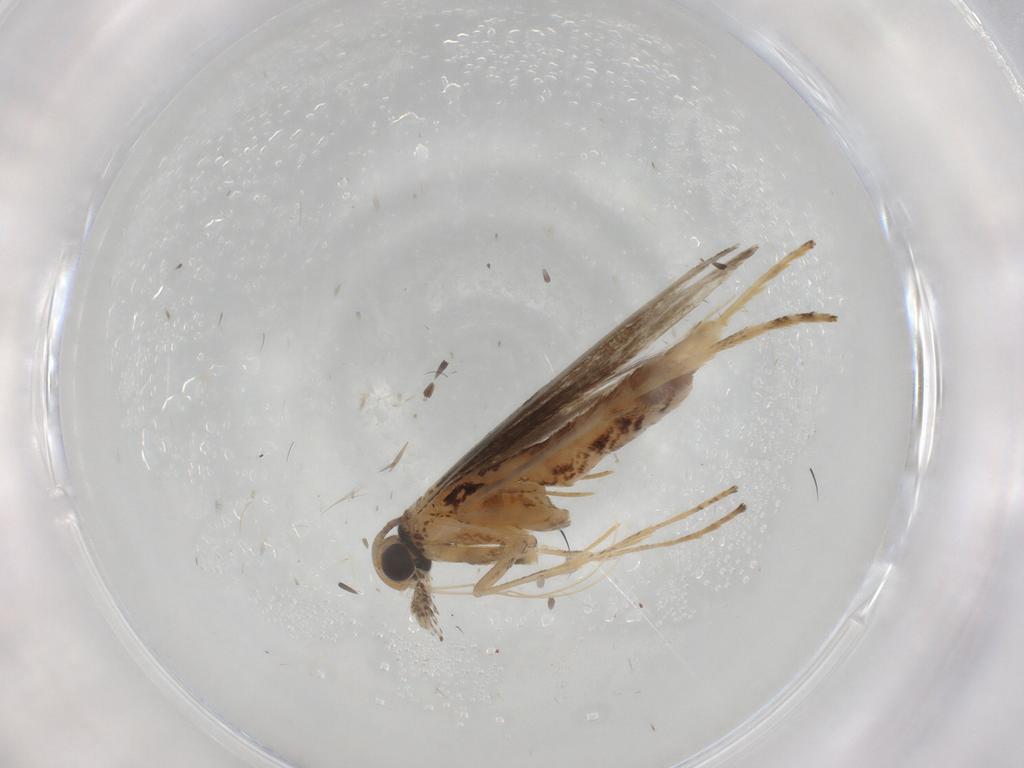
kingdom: Animalia
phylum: Arthropoda
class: Insecta
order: Lepidoptera
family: Gracillariidae
